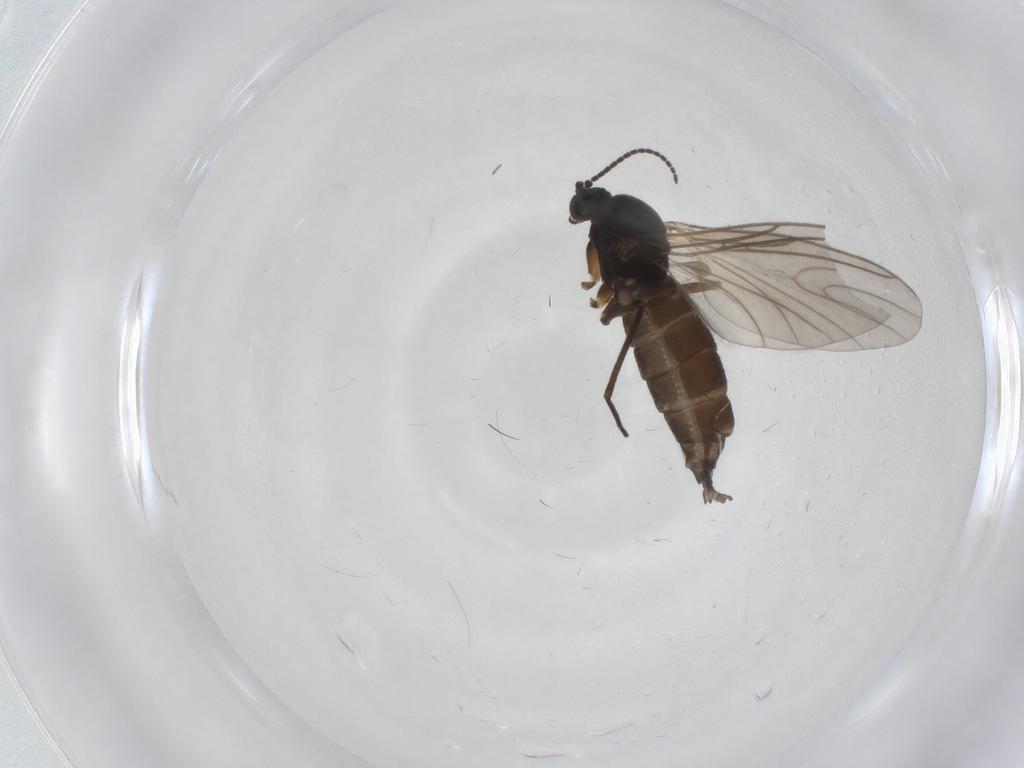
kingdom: Animalia
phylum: Arthropoda
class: Insecta
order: Diptera
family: Sciaridae
